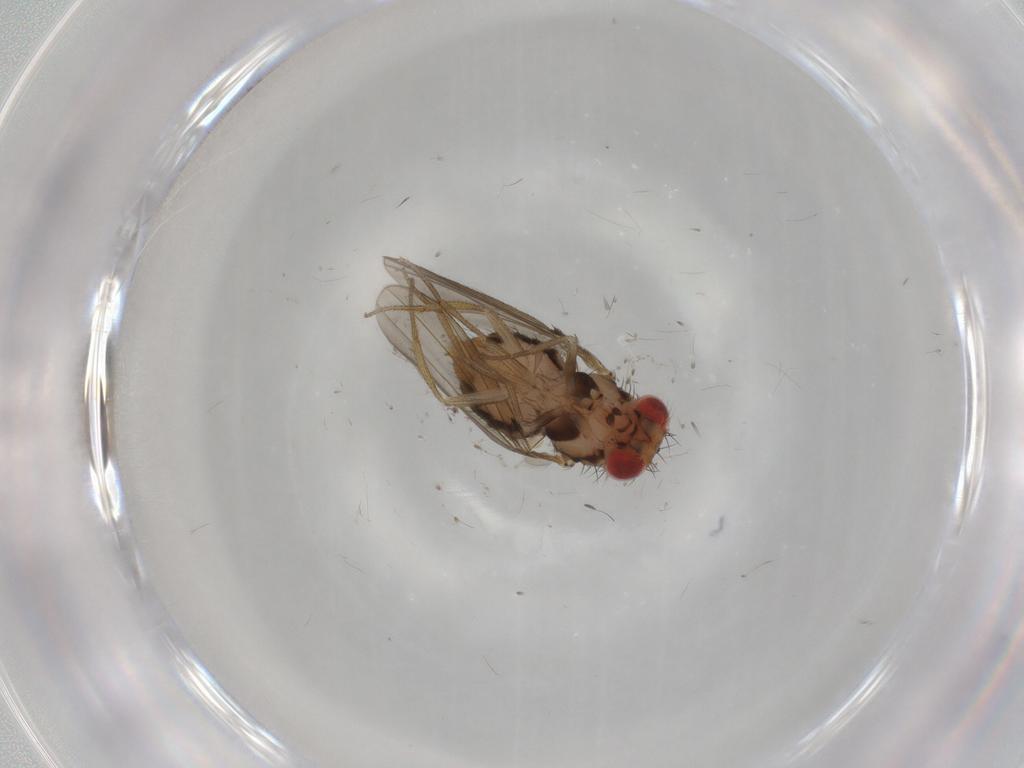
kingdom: Animalia
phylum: Arthropoda
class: Insecta
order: Diptera
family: Drosophilidae
